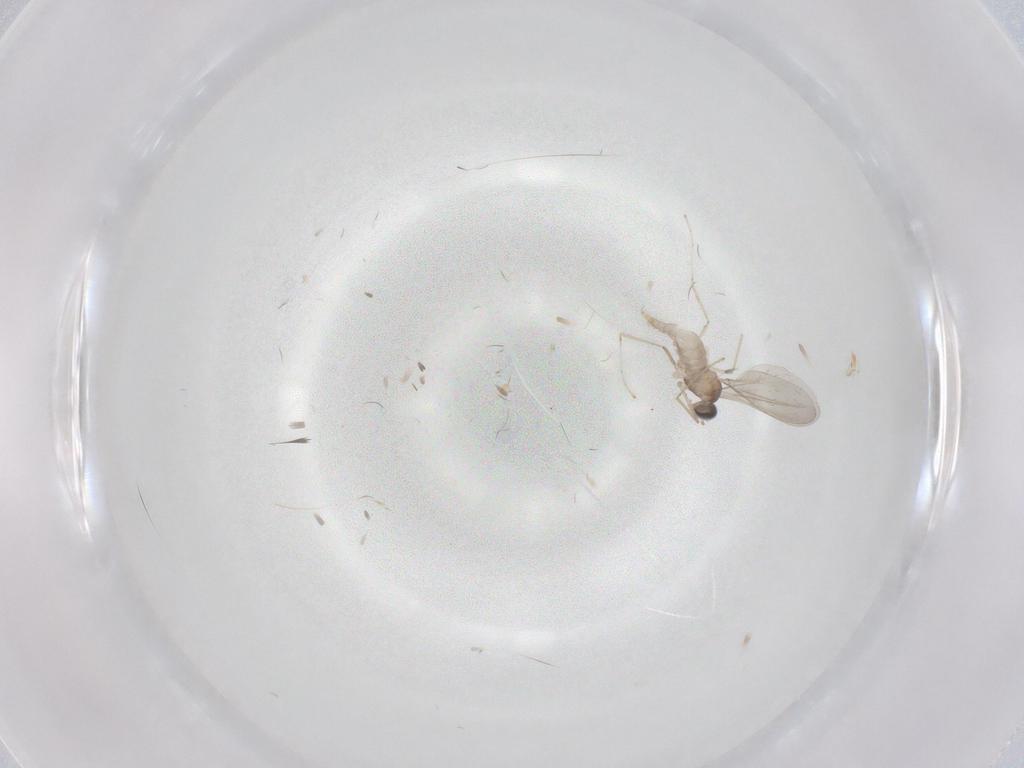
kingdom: Animalia
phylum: Arthropoda
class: Insecta
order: Diptera
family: Cecidomyiidae
